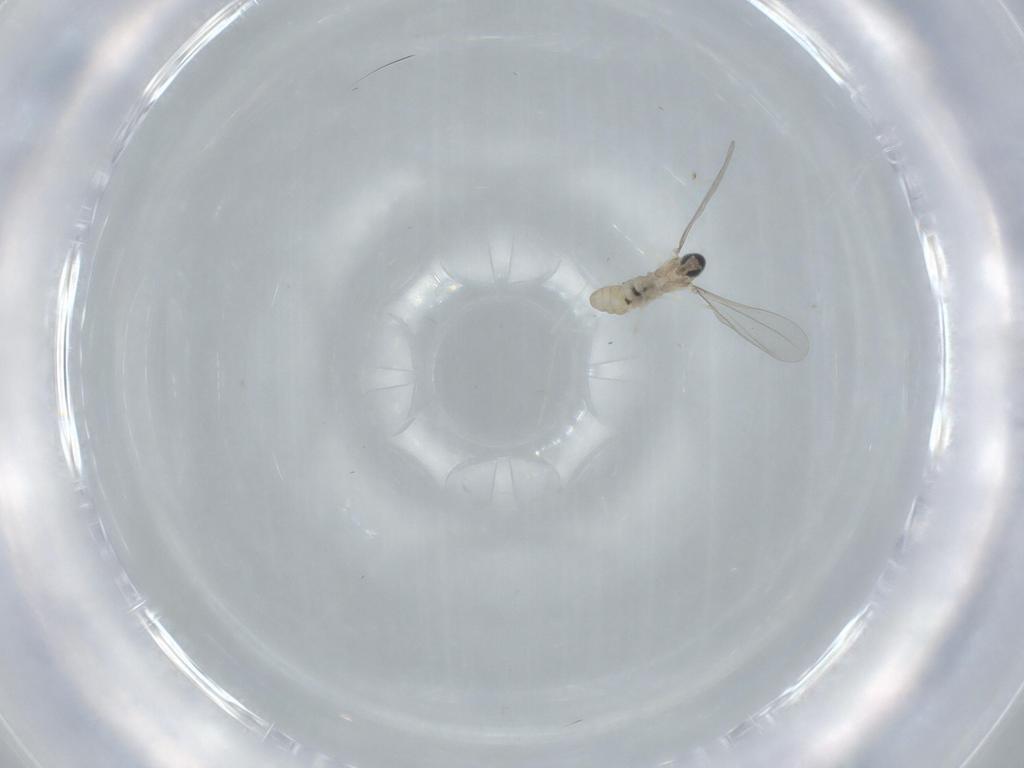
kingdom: Animalia
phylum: Arthropoda
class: Insecta
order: Diptera
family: Cecidomyiidae
